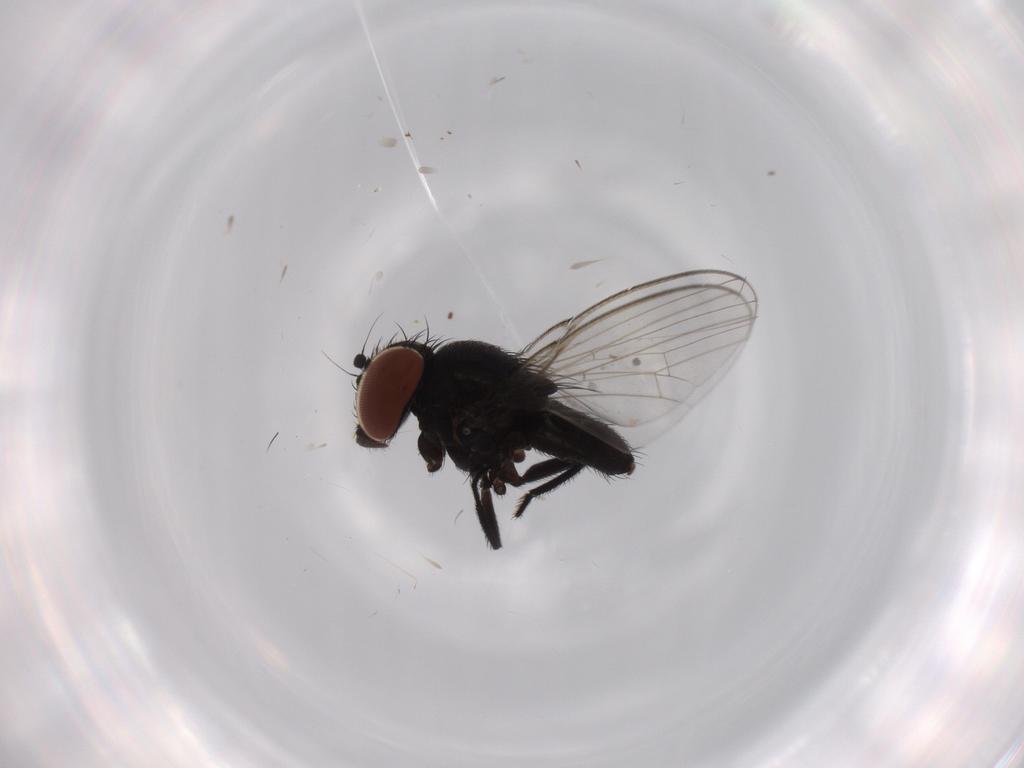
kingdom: Animalia
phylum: Arthropoda
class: Insecta
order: Diptera
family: Milichiidae
